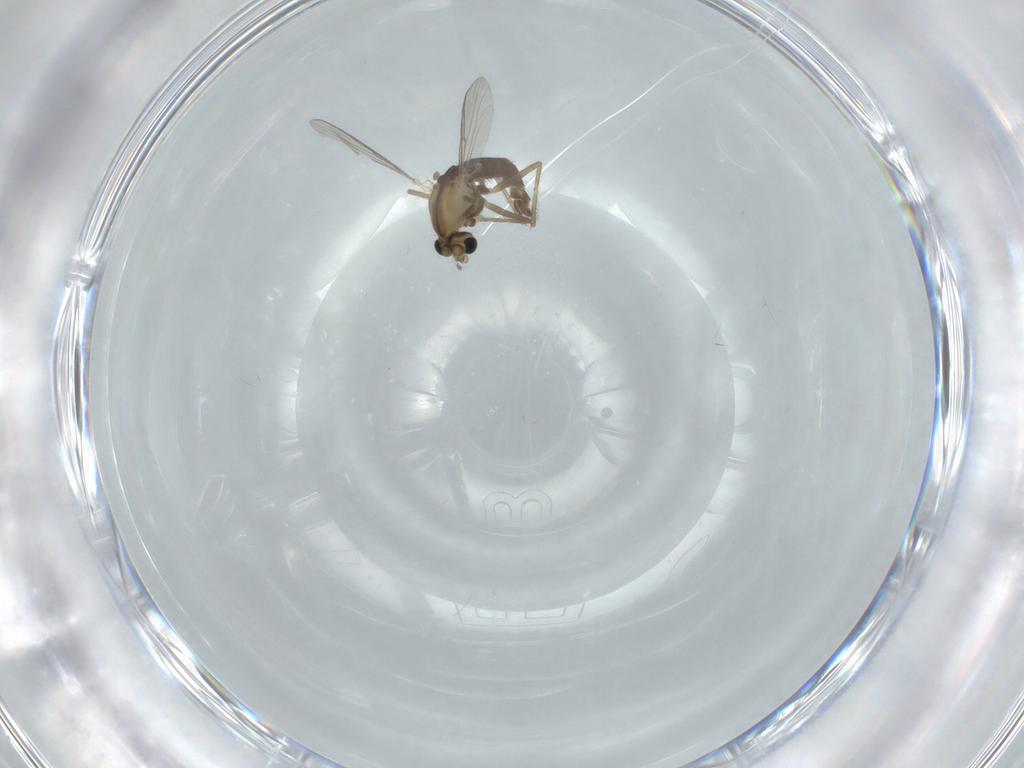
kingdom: Animalia
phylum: Arthropoda
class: Insecta
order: Diptera
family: Chironomidae
